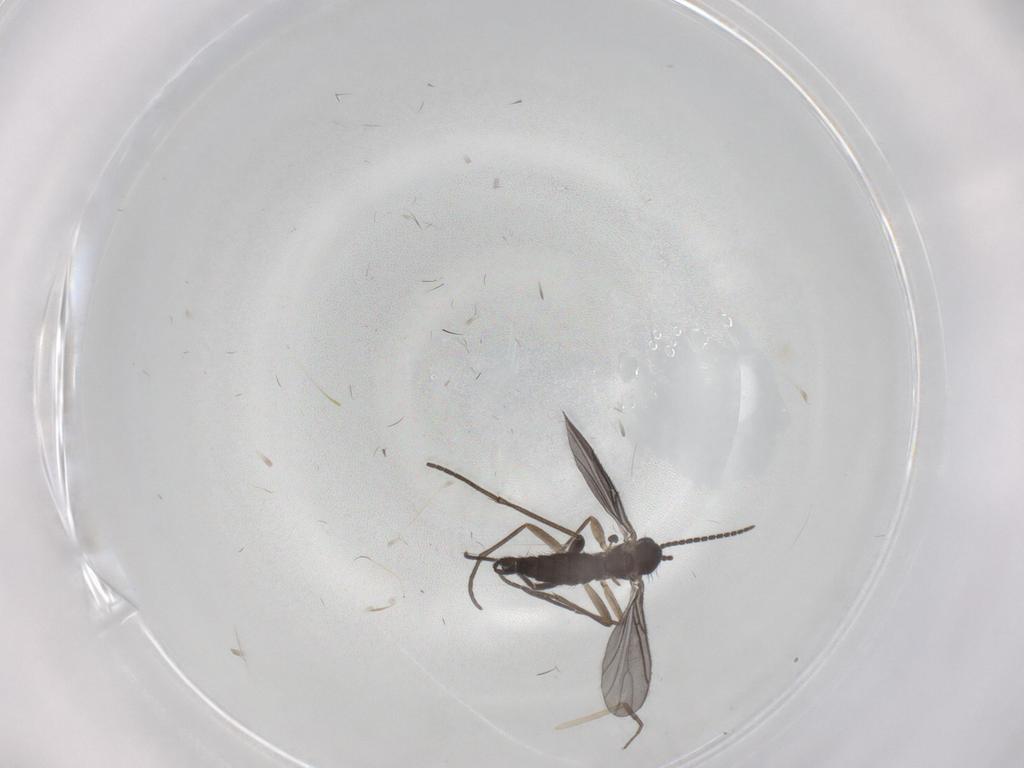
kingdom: Animalia
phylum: Arthropoda
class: Insecta
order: Diptera
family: Sciaridae
